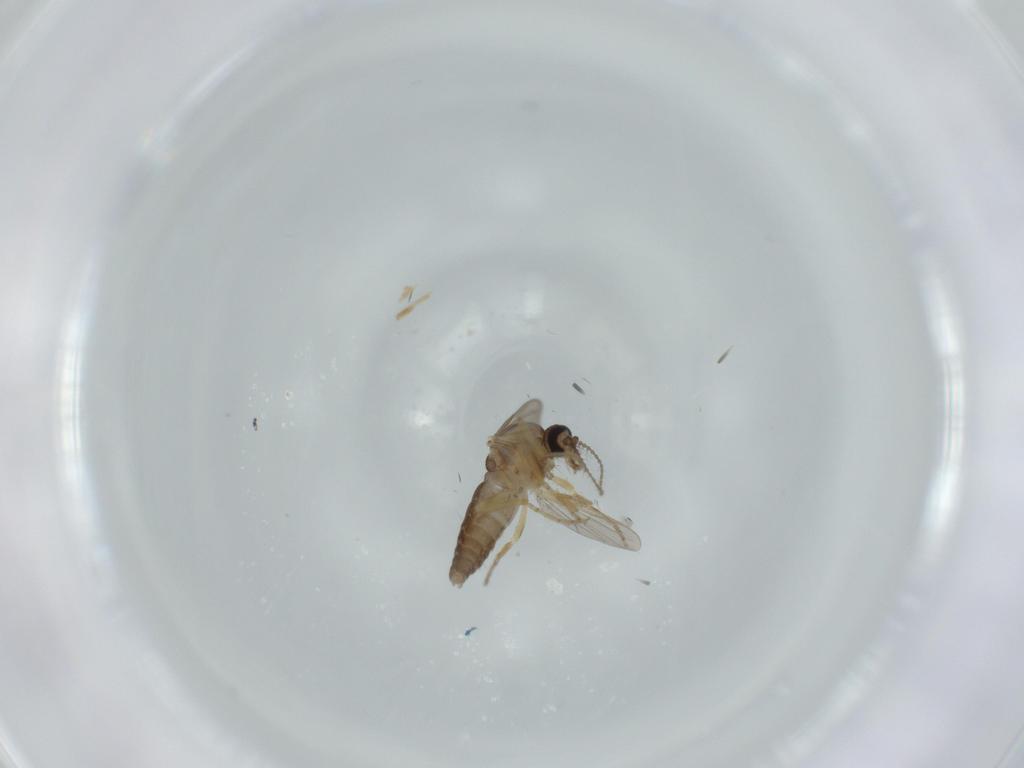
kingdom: Animalia
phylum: Arthropoda
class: Insecta
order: Diptera
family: Ceratopogonidae
